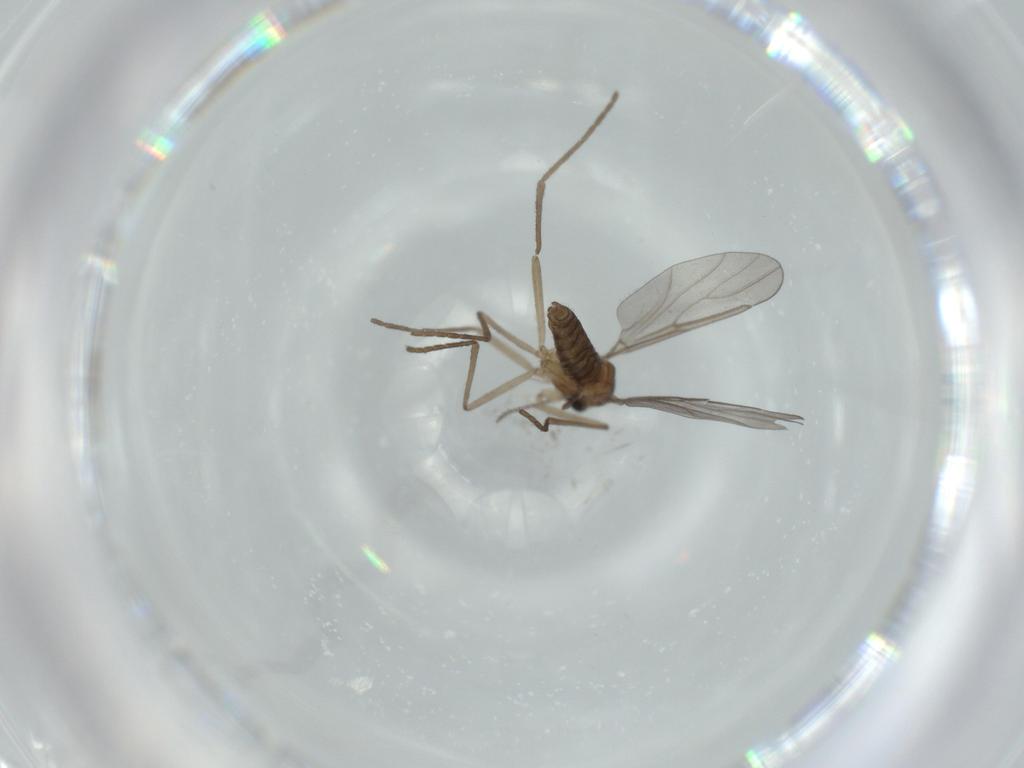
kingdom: Animalia
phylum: Arthropoda
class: Insecta
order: Diptera
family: Cecidomyiidae
